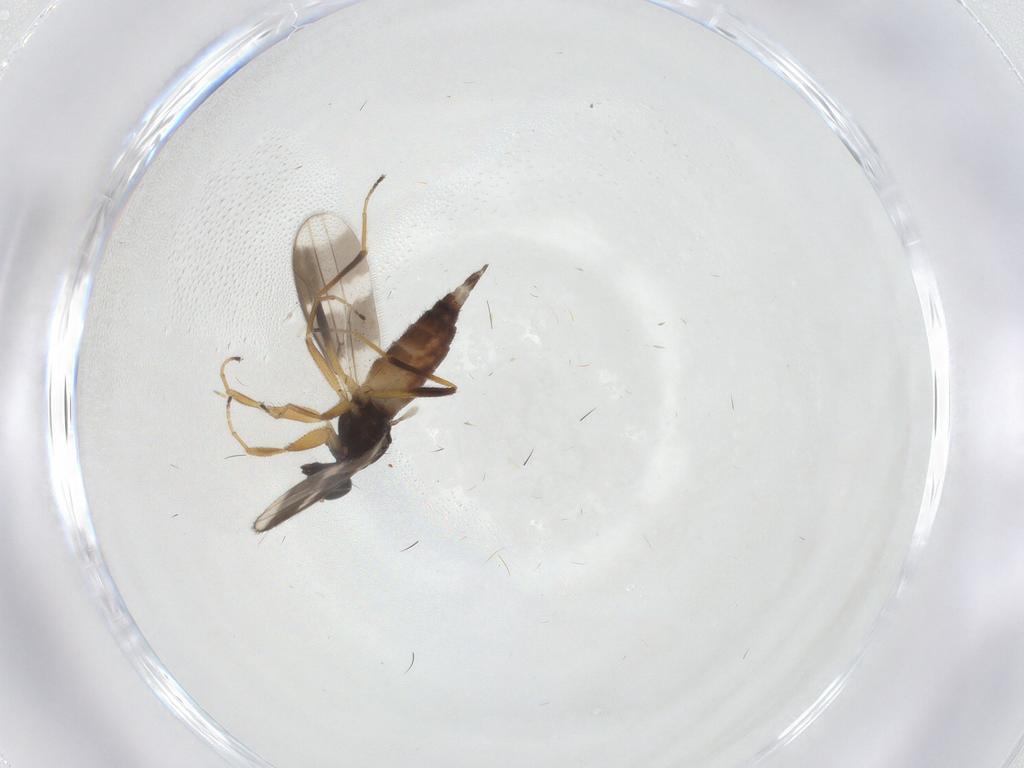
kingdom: Animalia
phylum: Arthropoda
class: Insecta
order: Diptera
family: Hybotidae
